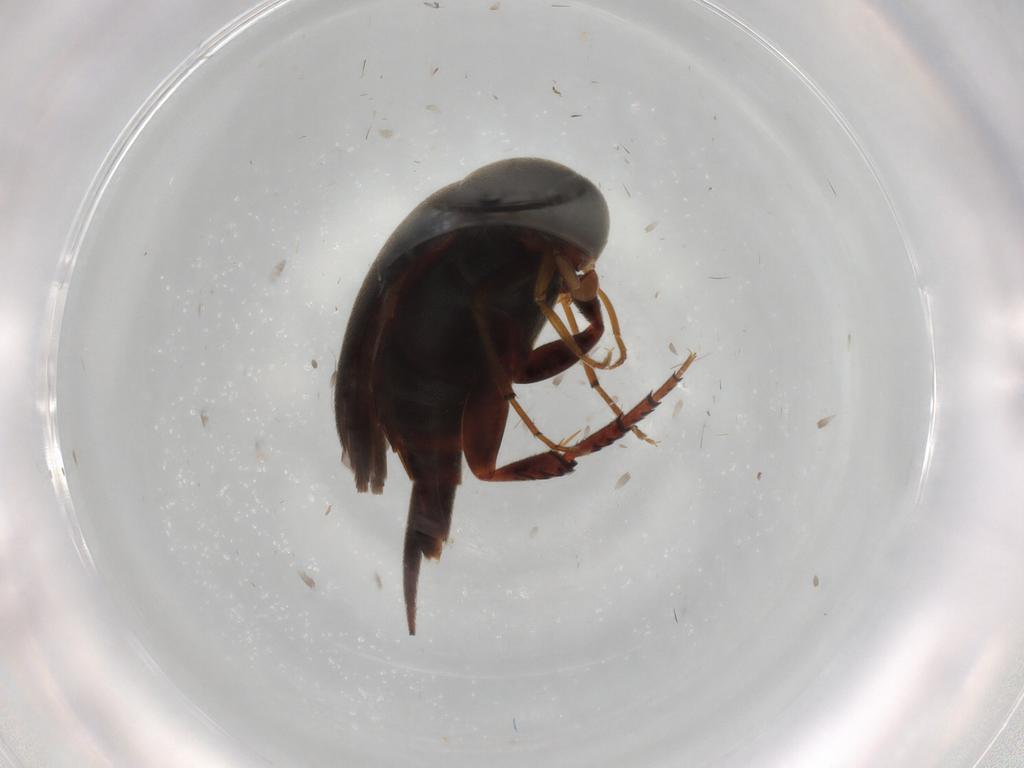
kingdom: Animalia
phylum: Arthropoda
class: Insecta
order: Coleoptera
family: Mordellidae
